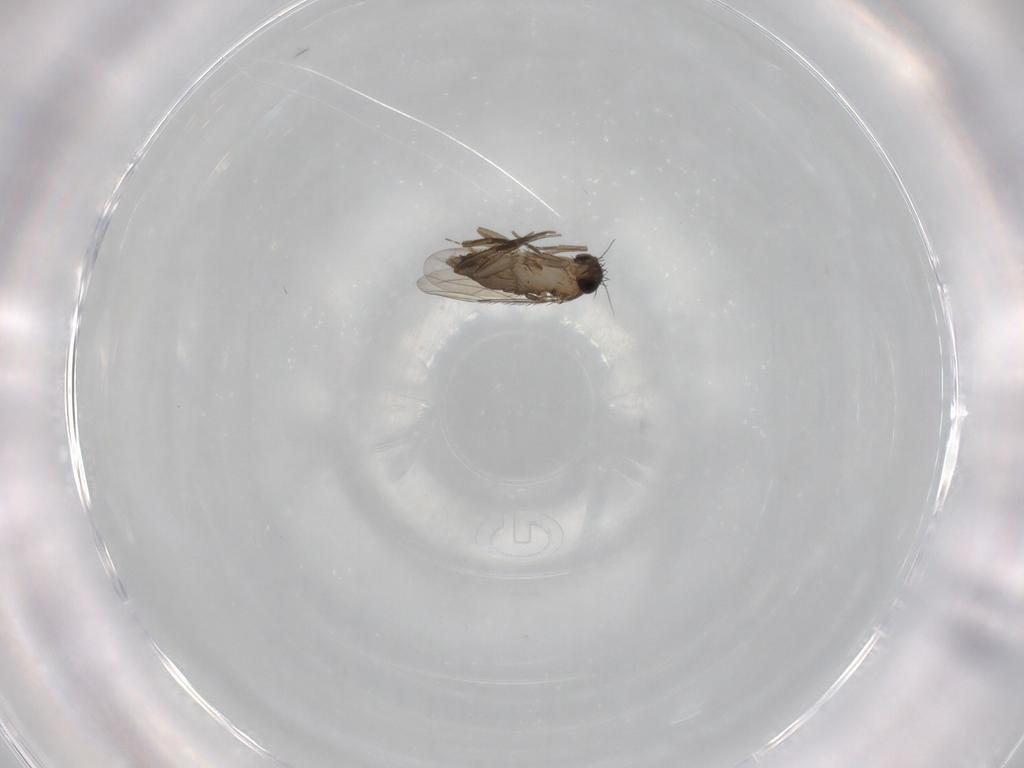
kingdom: Animalia
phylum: Arthropoda
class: Insecta
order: Diptera
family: Phoridae
